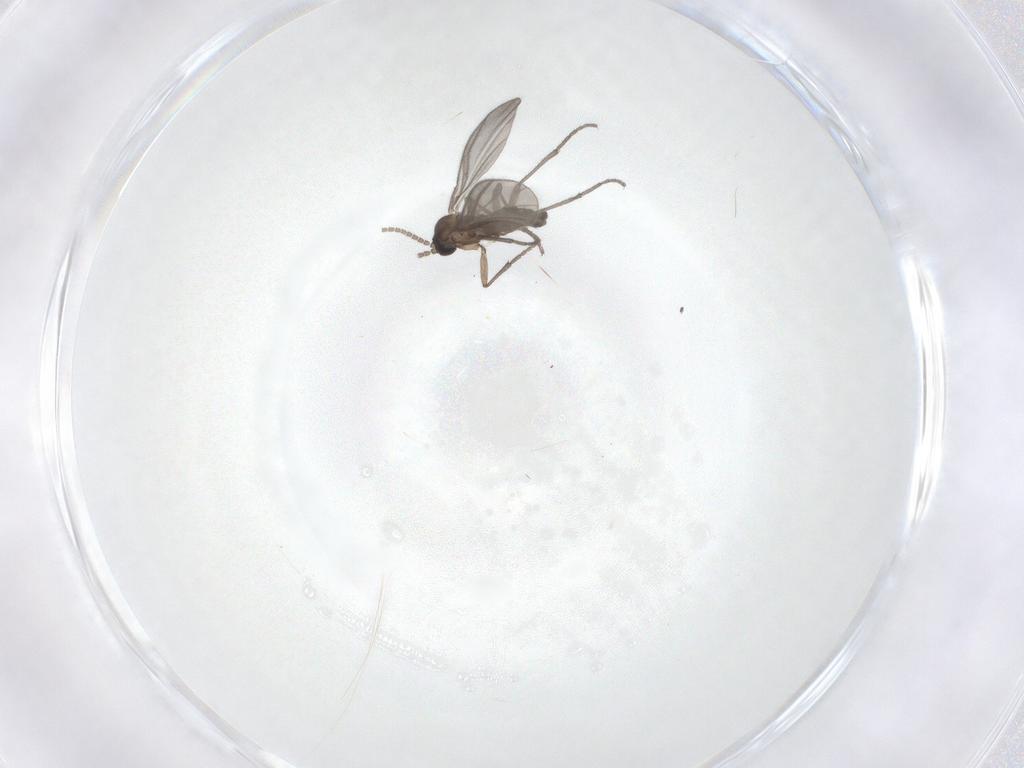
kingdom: Animalia
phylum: Arthropoda
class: Insecta
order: Diptera
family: Sciaridae
